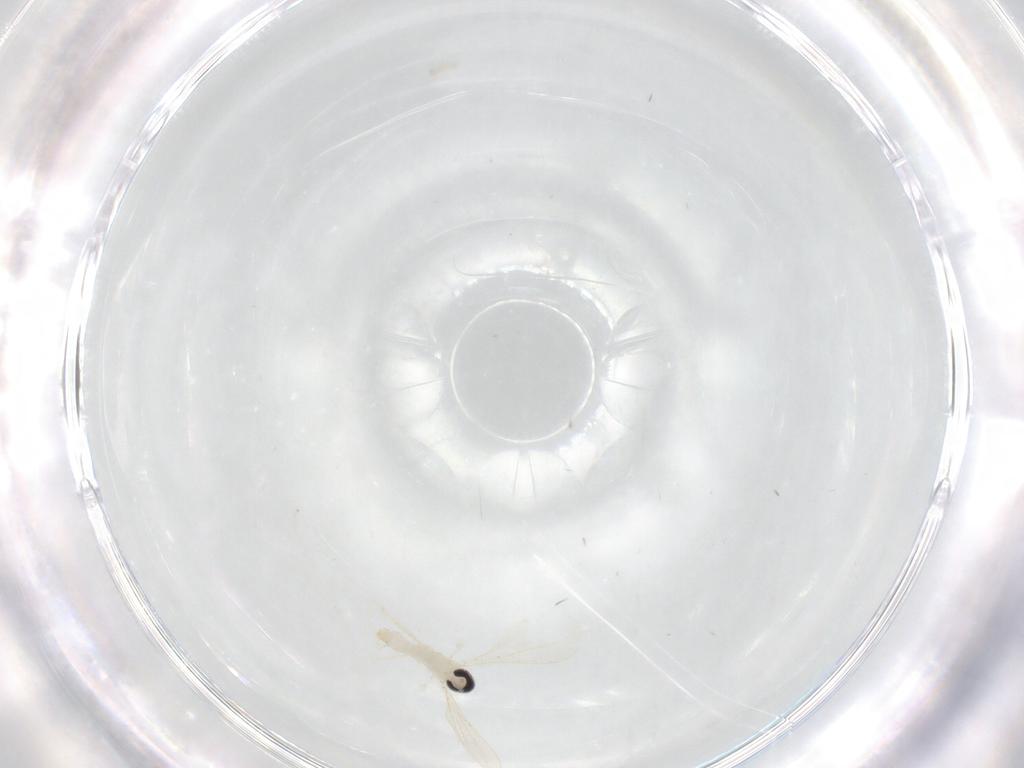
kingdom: Animalia
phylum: Arthropoda
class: Insecta
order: Diptera
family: Cecidomyiidae
